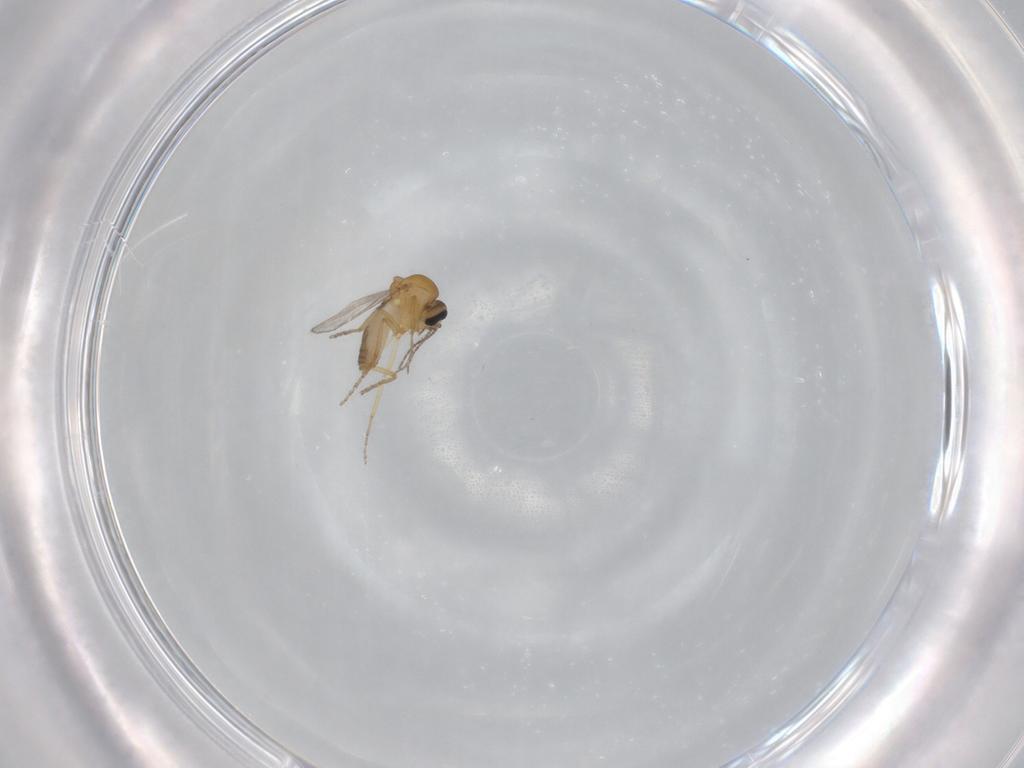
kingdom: Animalia
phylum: Arthropoda
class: Insecta
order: Diptera
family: Ceratopogonidae
